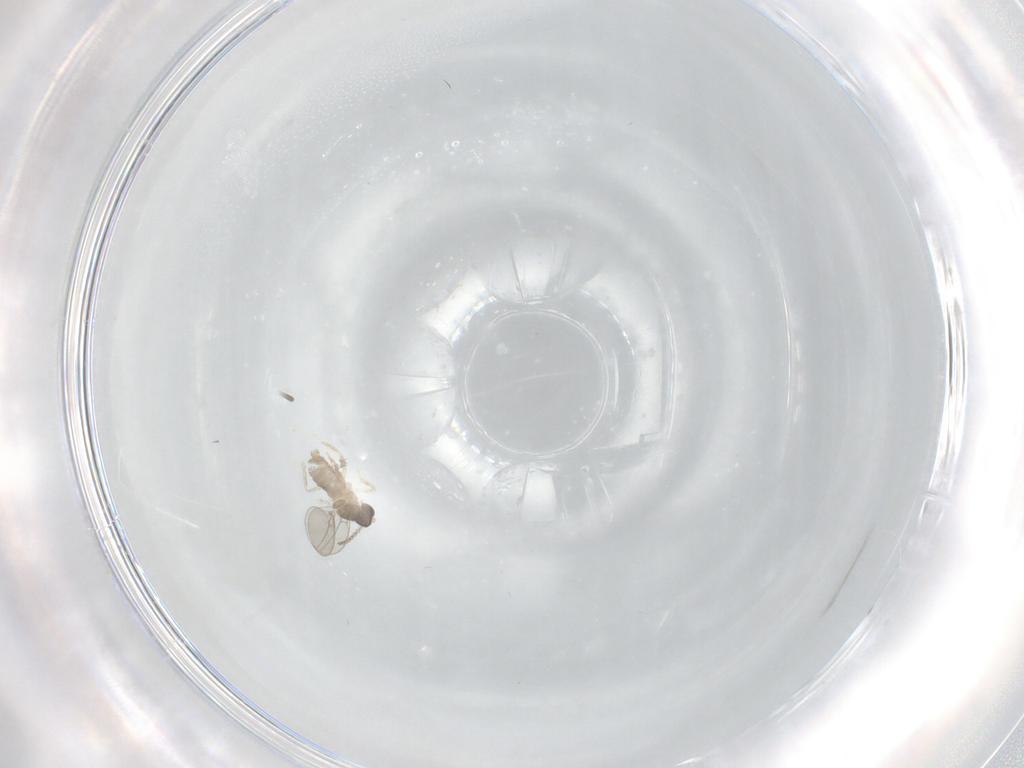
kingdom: Animalia
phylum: Arthropoda
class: Insecta
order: Diptera
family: Cecidomyiidae
